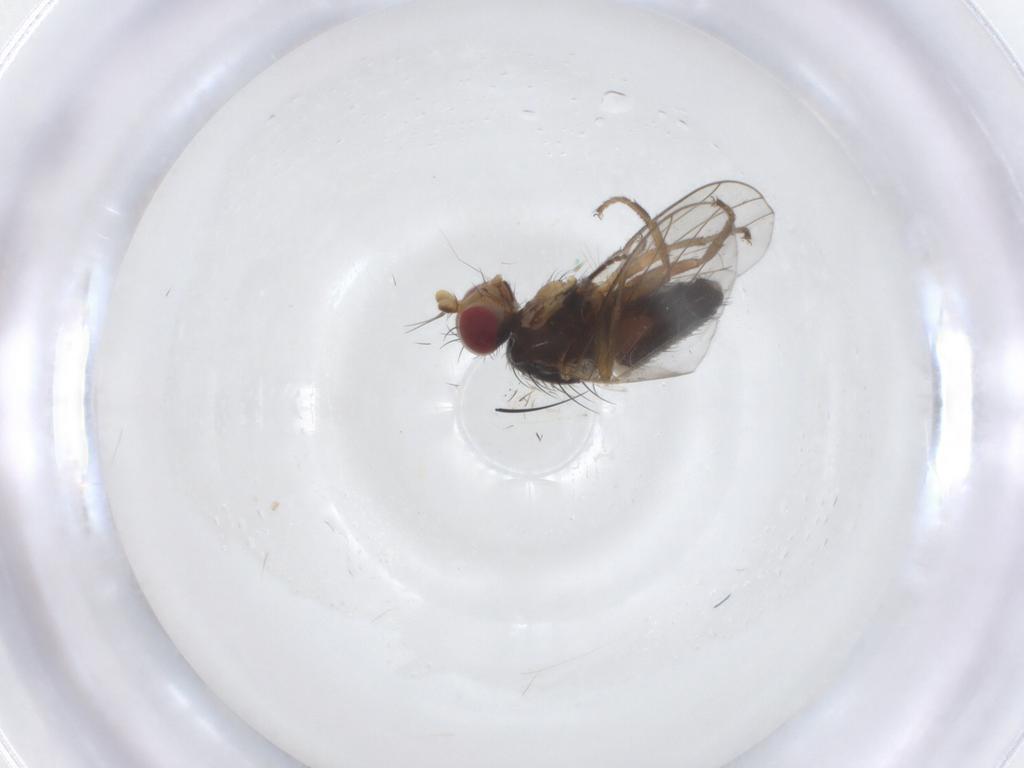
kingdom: Animalia
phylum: Arthropoda
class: Insecta
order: Diptera
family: Heleomyzidae
